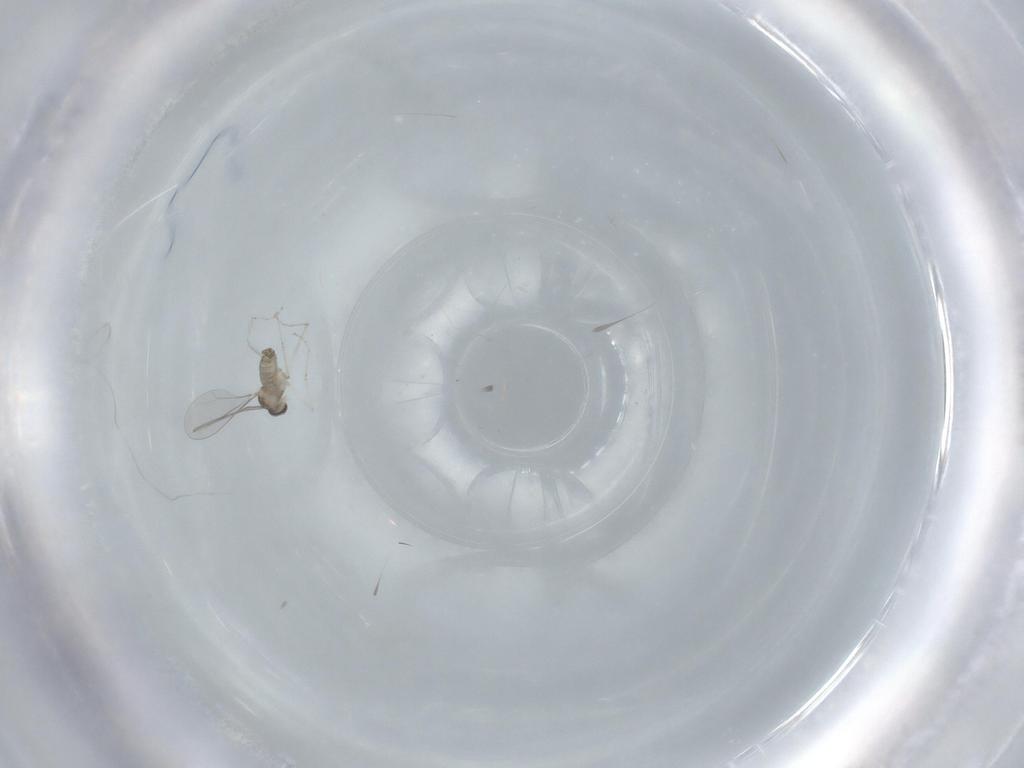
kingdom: Animalia
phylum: Arthropoda
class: Insecta
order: Diptera
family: Cecidomyiidae
